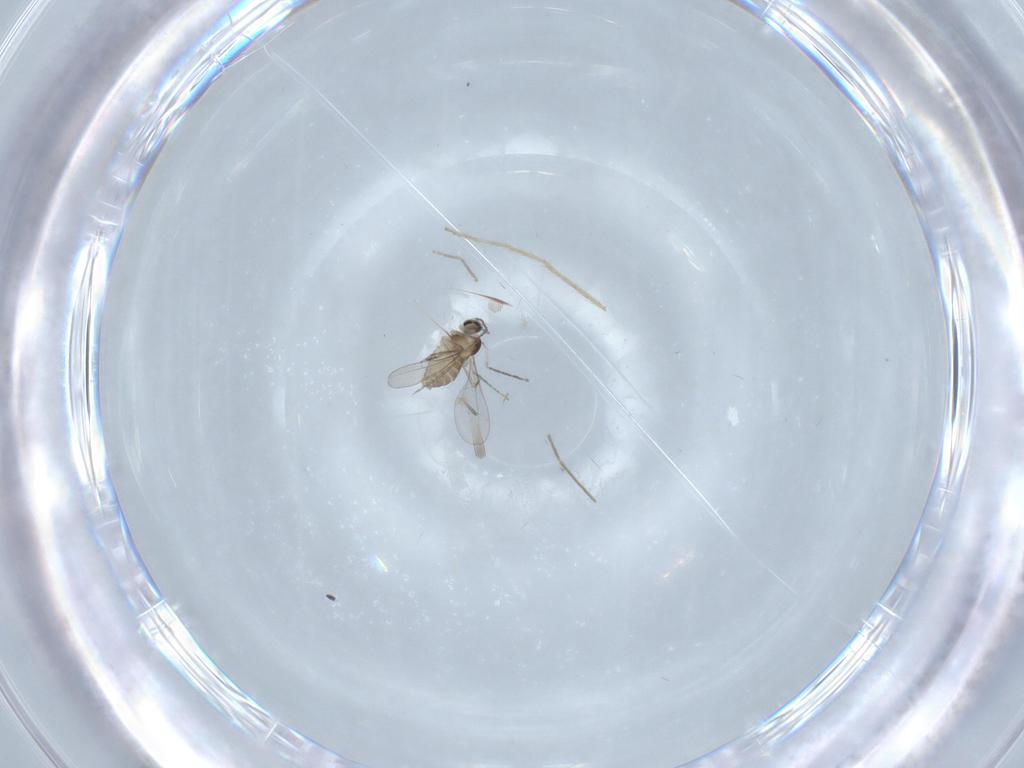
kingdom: Animalia
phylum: Arthropoda
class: Insecta
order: Diptera
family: Cecidomyiidae
